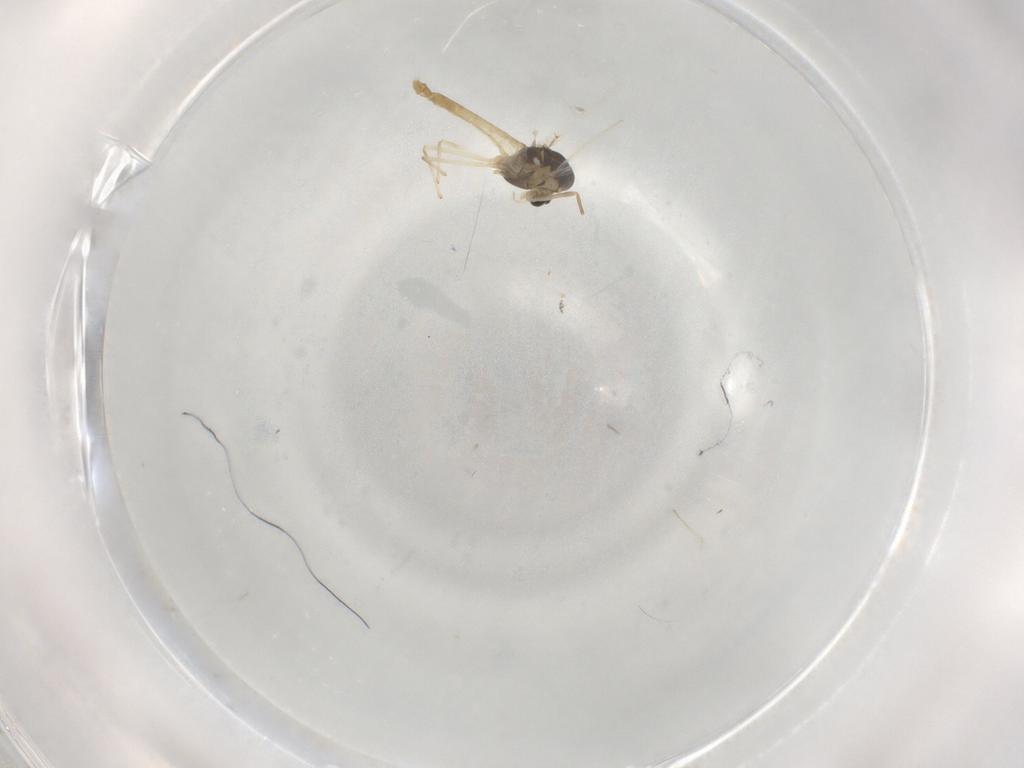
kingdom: Animalia
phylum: Arthropoda
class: Insecta
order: Diptera
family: Chironomidae
